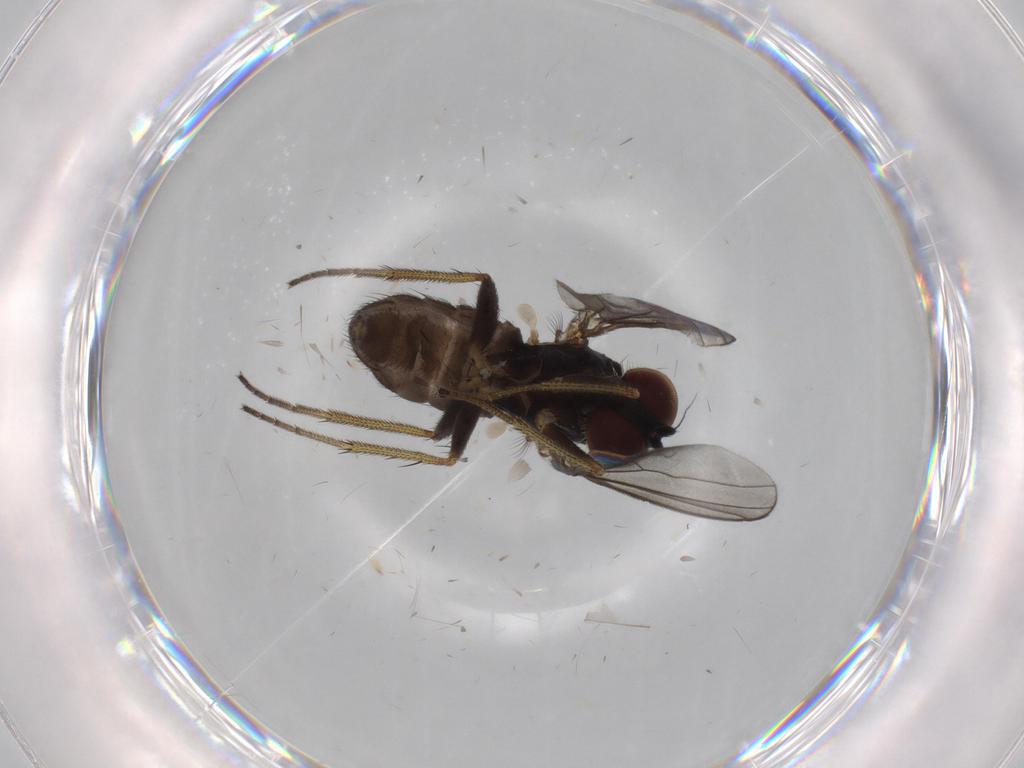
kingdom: Animalia
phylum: Arthropoda
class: Insecta
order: Diptera
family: Dolichopodidae
